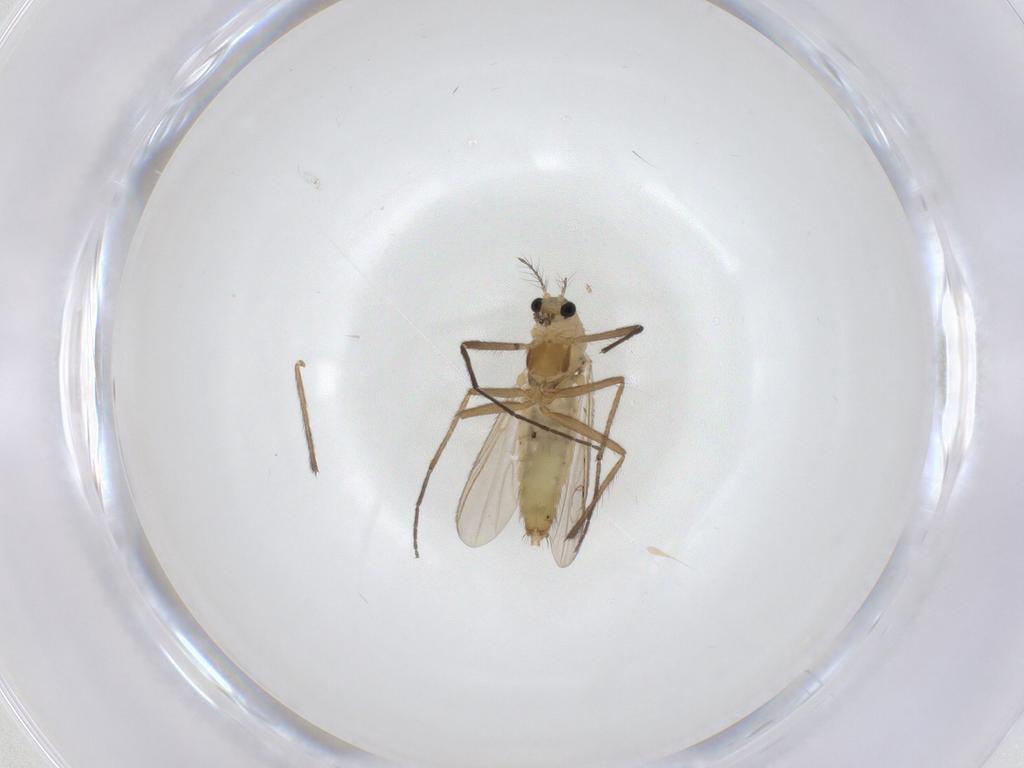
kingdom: Animalia
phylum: Arthropoda
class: Insecta
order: Diptera
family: Chironomidae
